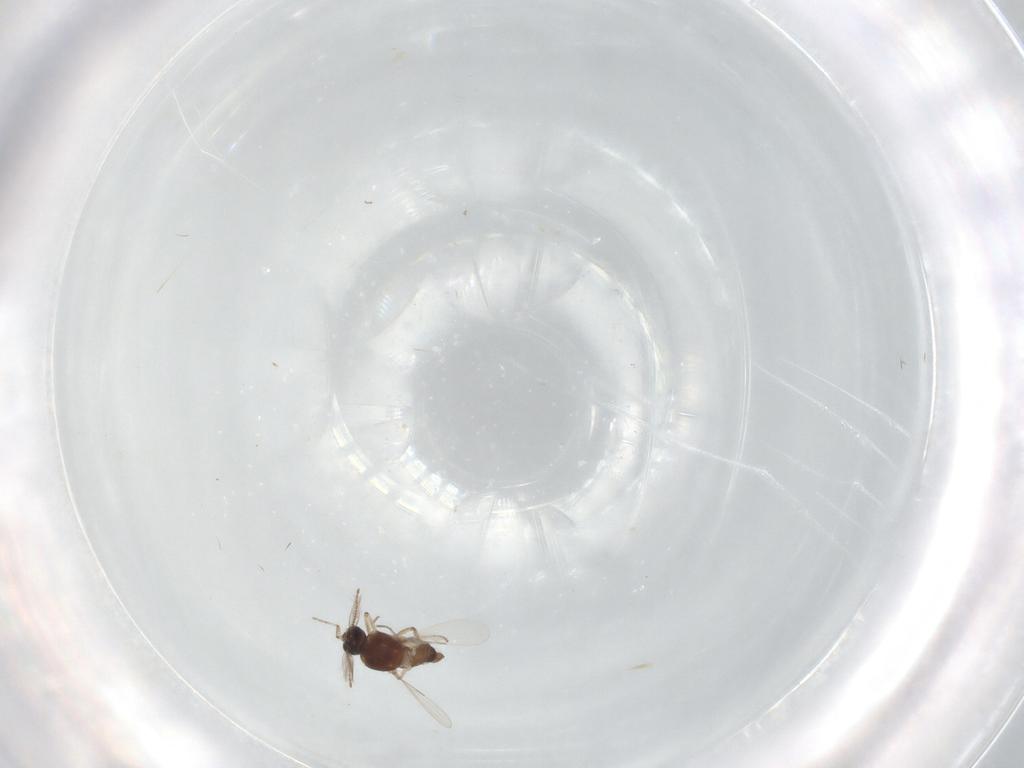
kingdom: Animalia
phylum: Arthropoda
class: Insecta
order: Diptera
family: Ceratopogonidae
